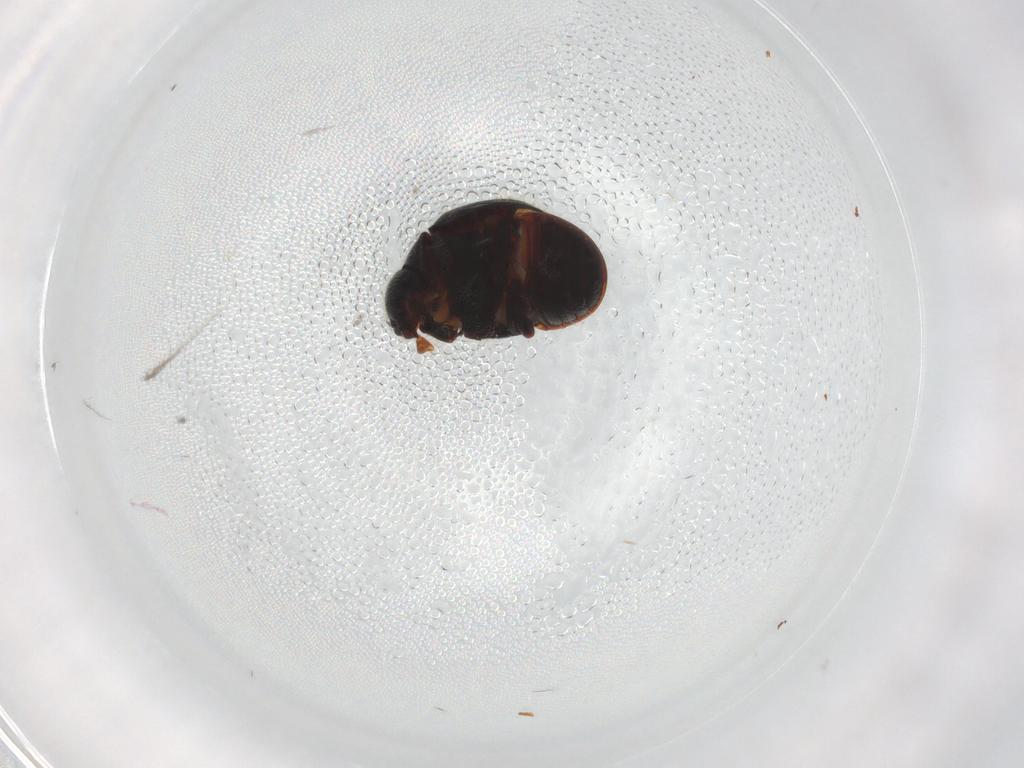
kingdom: Animalia
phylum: Arthropoda
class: Insecta
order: Coleoptera
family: Ptinidae
